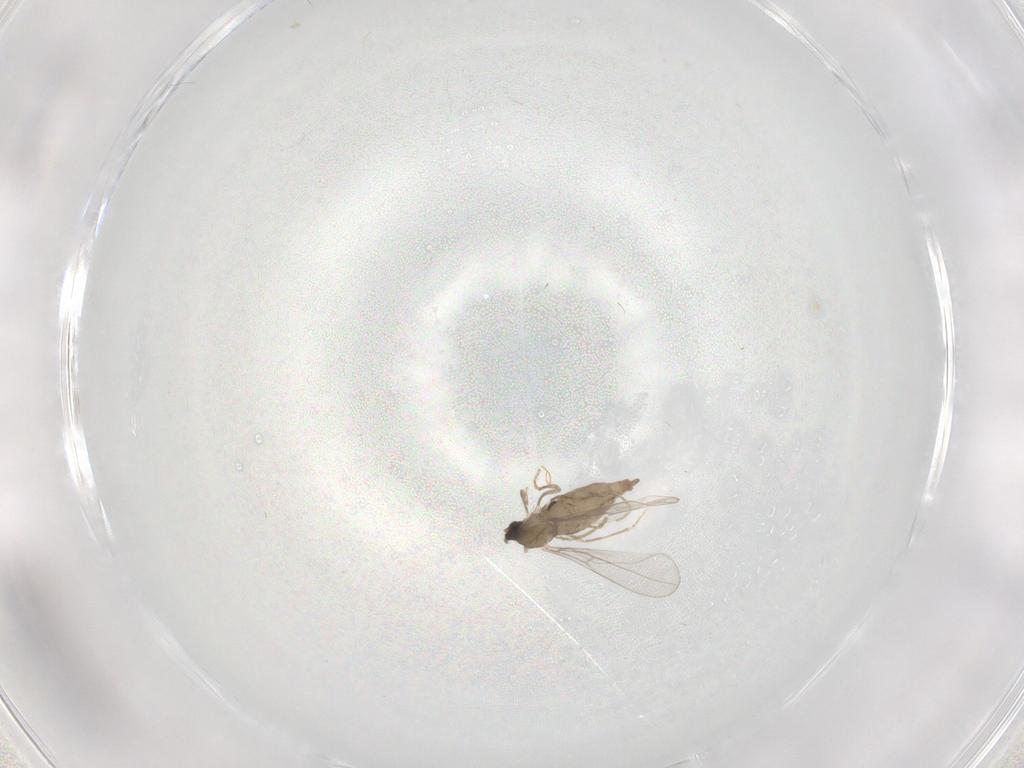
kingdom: Animalia
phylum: Arthropoda
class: Insecta
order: Diptera
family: Cecidomyiidae
